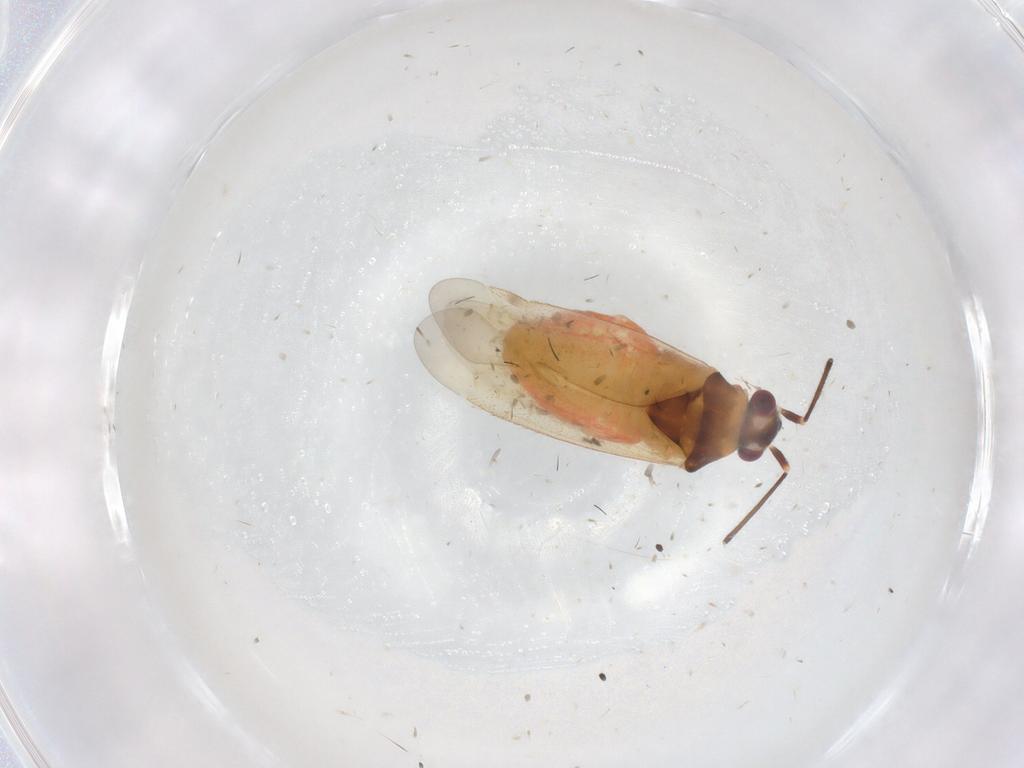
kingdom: Animalia
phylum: Arthropoda
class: Insecta
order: Hemiptera
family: Miridae
